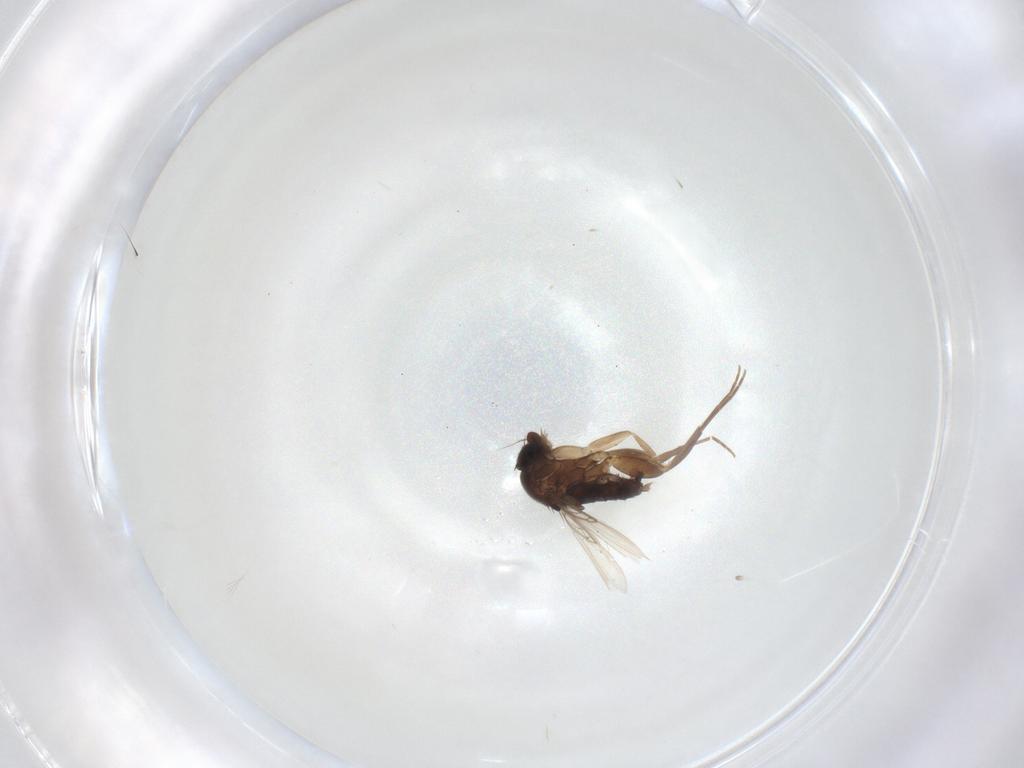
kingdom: Animalia
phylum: Arthropoda
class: Insecta
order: Diptera
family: Phoridae
